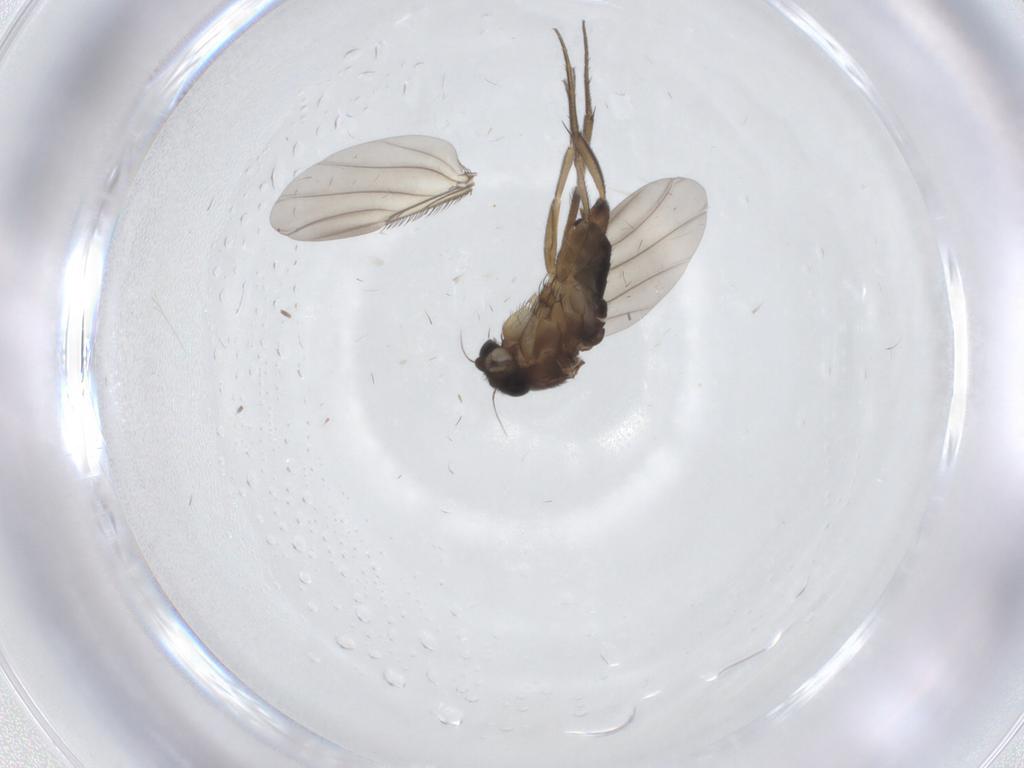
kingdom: Animalia
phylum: Arthropoda
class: Insecta
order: Diptera
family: Phoridae
